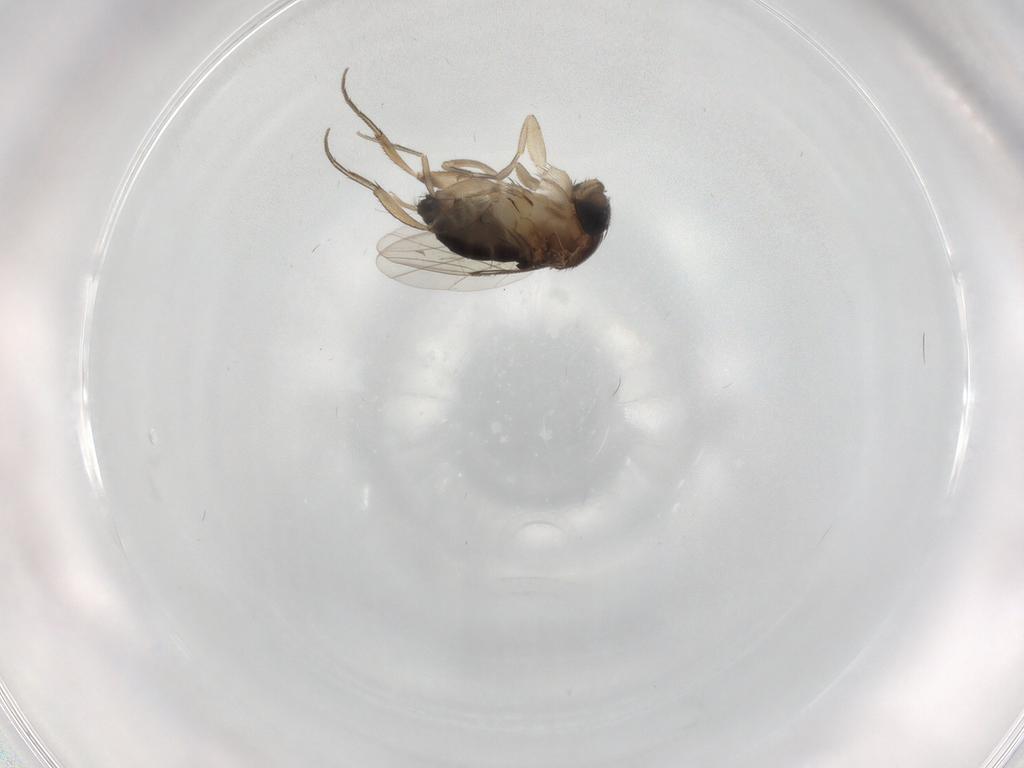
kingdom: Animalia
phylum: Arthropoda
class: Insecta
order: Diptera
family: Phoridae
